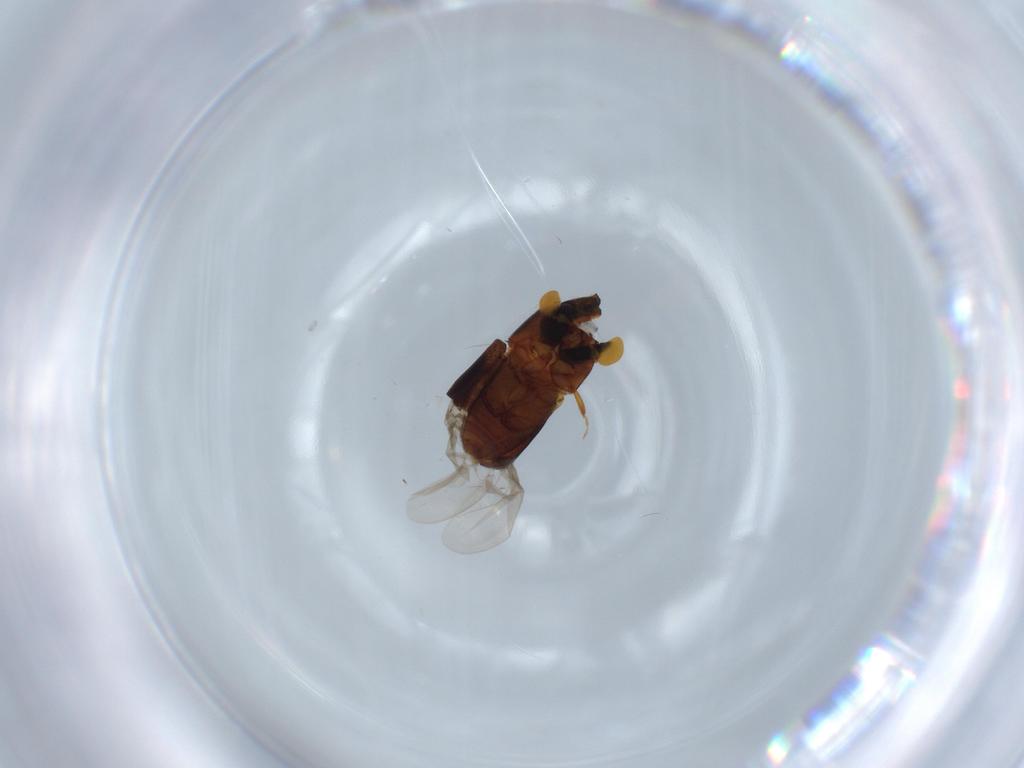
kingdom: Animalia
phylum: Arthropoda
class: Insecta
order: Coleoptera
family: Curculionidae
